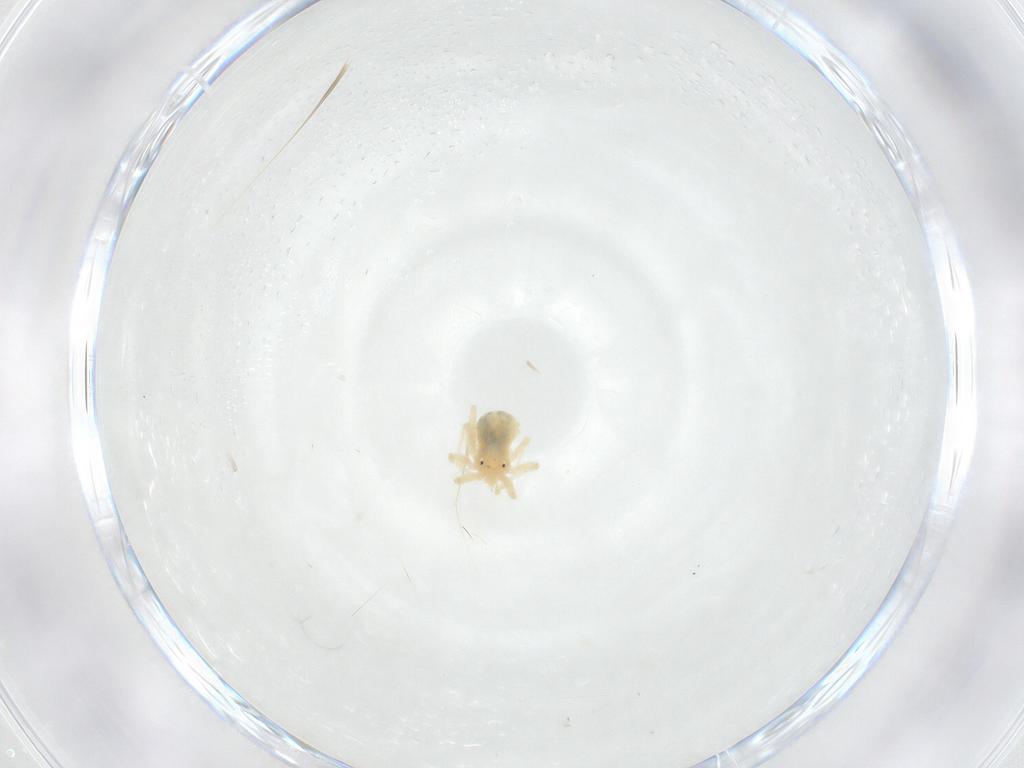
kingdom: Animalia
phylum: Arthropoda
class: Arachnida
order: Trombidiformes
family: Anystidae
